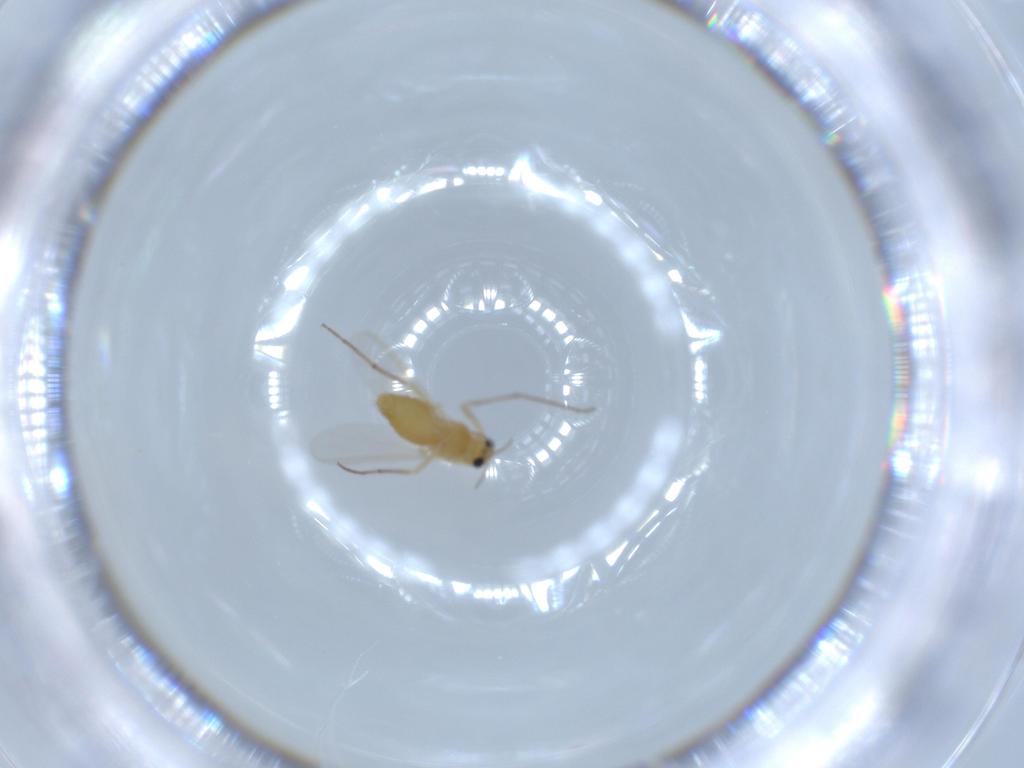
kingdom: Animalia
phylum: Arthropoda
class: Insecta
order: Diptera
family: Chironomidae
